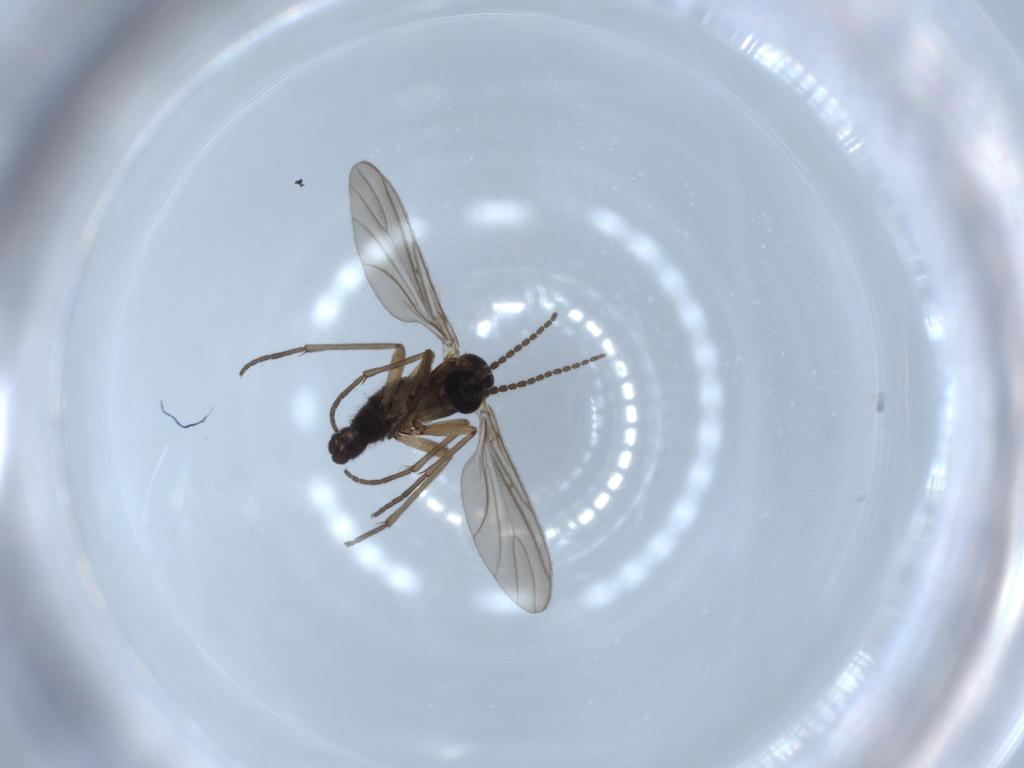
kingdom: Animalia
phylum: Arthropoda
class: Insecta
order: Diptera
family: Sciaridae
